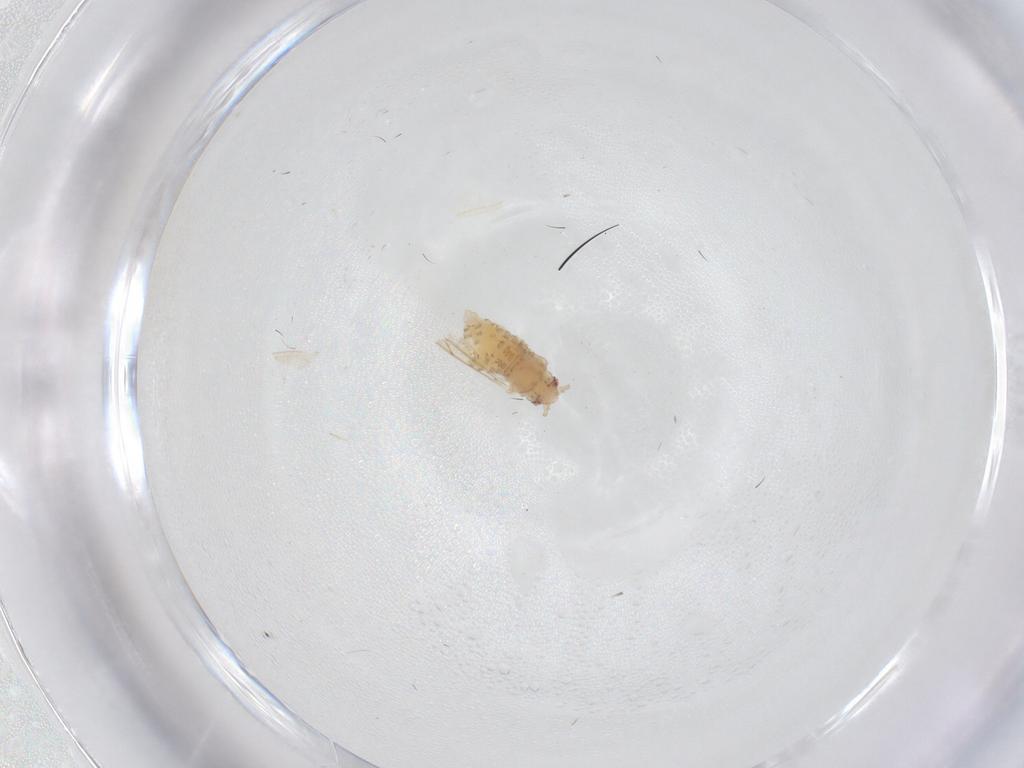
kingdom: Animalia
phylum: Arthropoda
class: Insecta
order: Hemiptera
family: Aphididae
